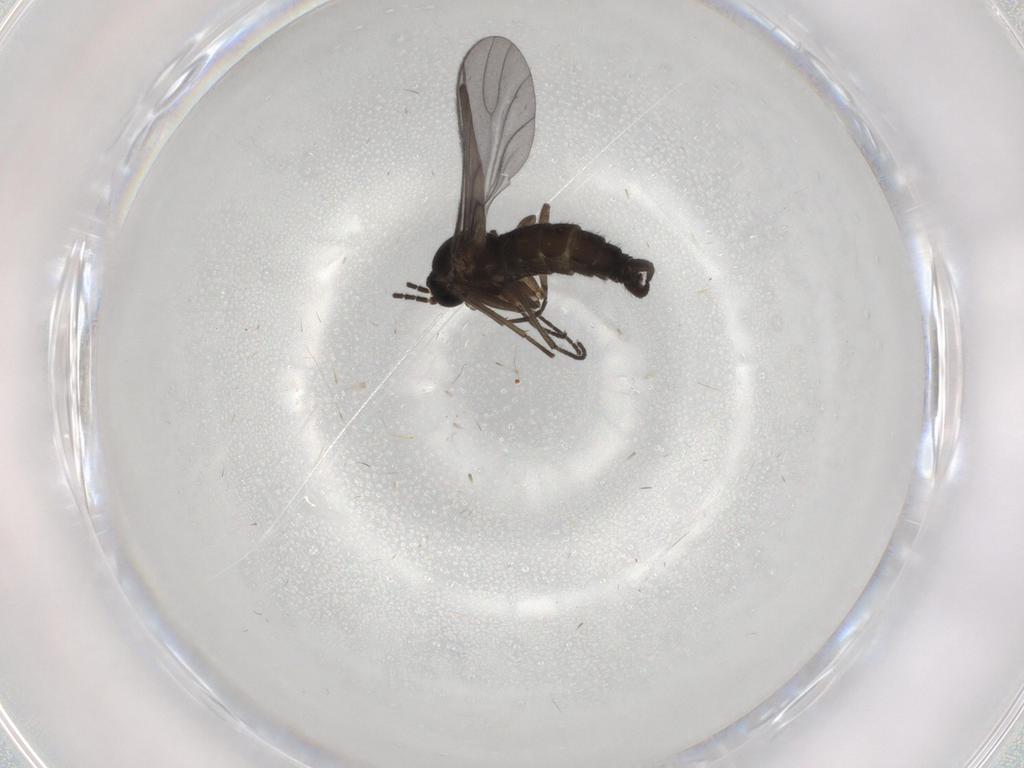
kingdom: Animalia
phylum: Arthropoda
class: Insecta
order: Diptera
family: Sciaridae
